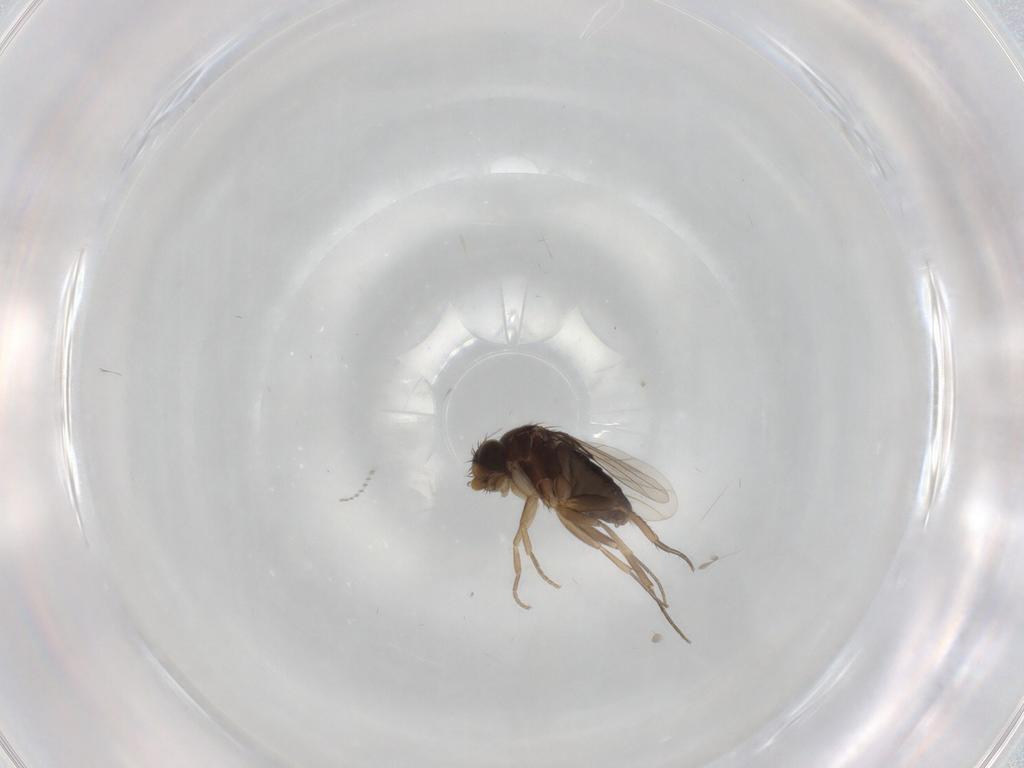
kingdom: Animalia
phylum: Arthropoda
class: Insecta
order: Diptera
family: Phoridae
